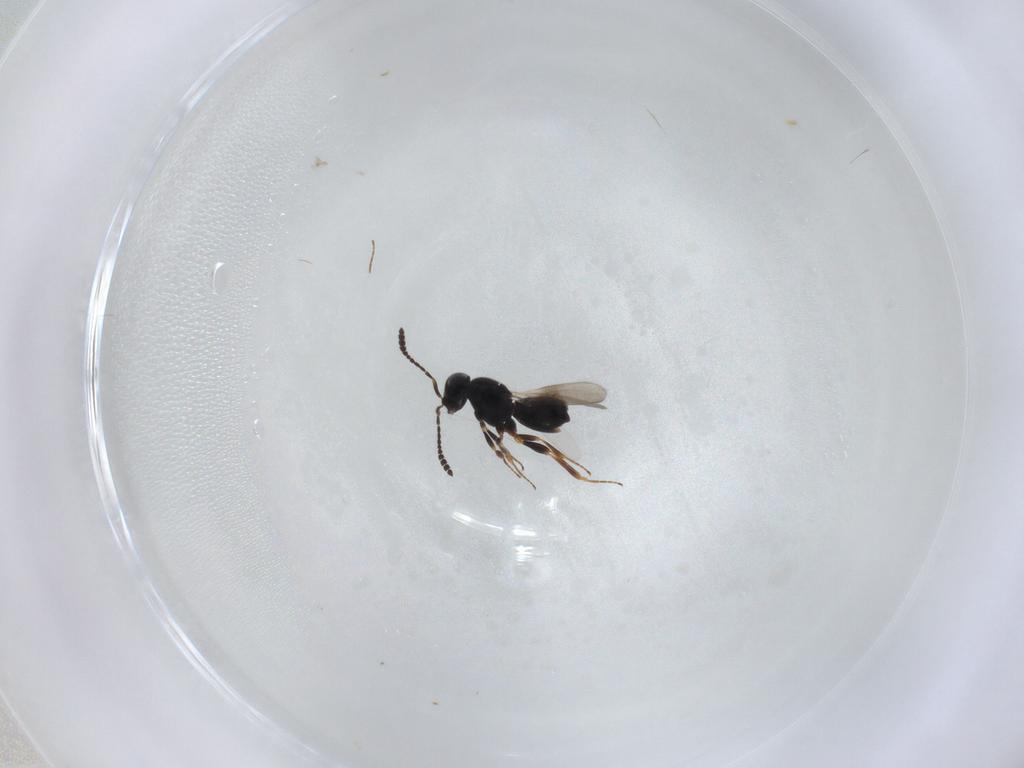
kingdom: Animalia
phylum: Arthropoda
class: Insecta
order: Hymenoptera
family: Scelionidae
